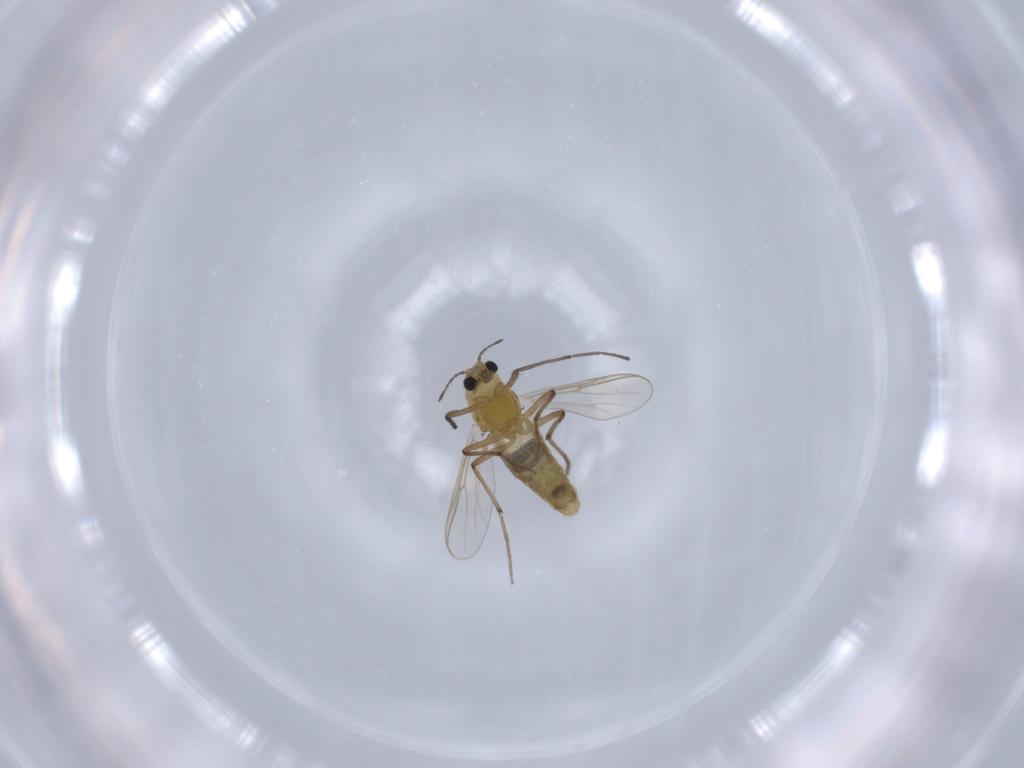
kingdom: Animalia
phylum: Arthropoda
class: Insecta
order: Diptera
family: Chironomidae
